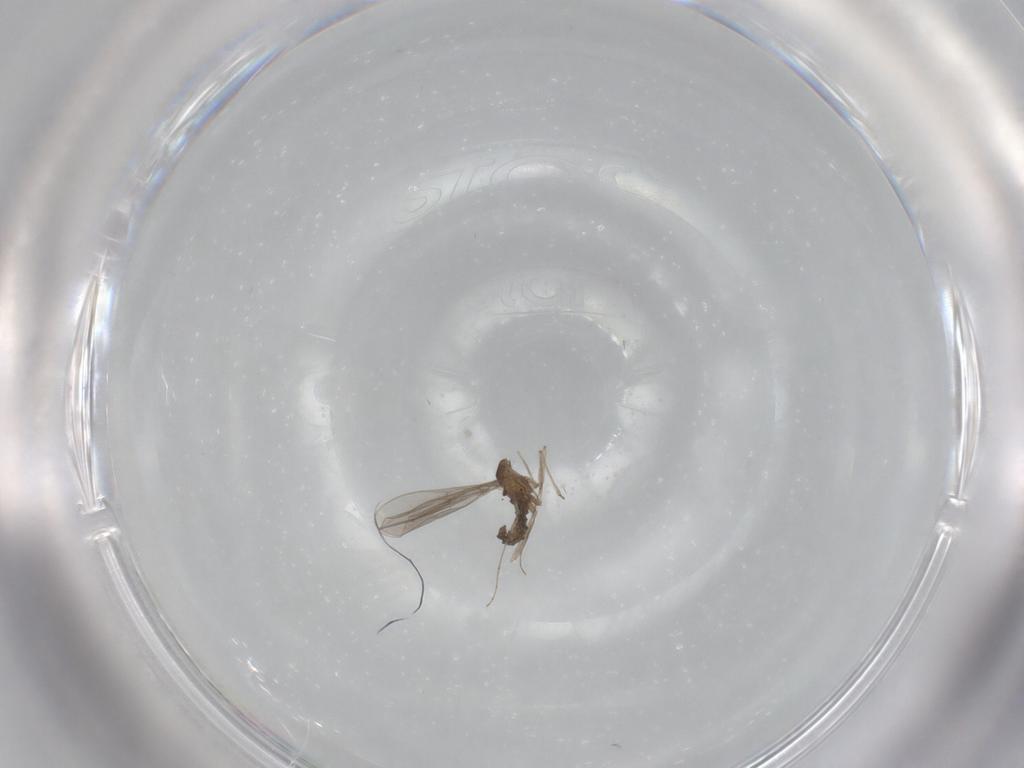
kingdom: Animalia
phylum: Arthropoda
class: Insecta
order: Diptera
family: Cecidomyiidae
